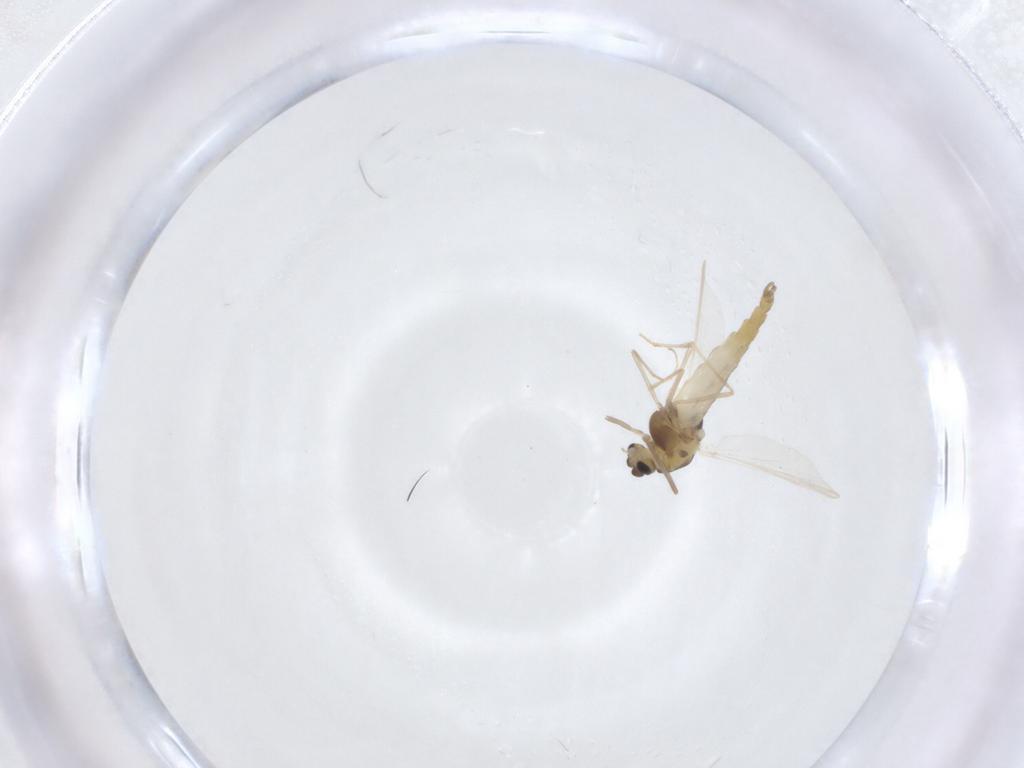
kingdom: Animalia
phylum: Arthropoda
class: Insecta
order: Diptera
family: Chironomidae
